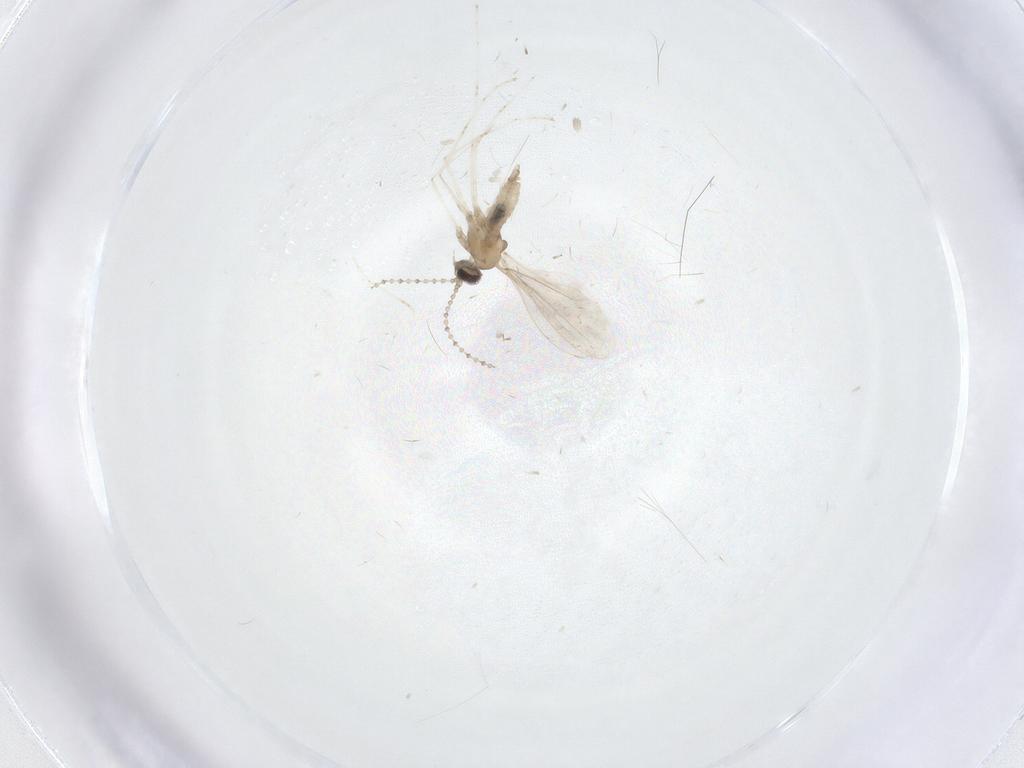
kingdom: Animalia
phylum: Arthropoda
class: Insecta
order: Diptera
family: Cecidomyiidae
